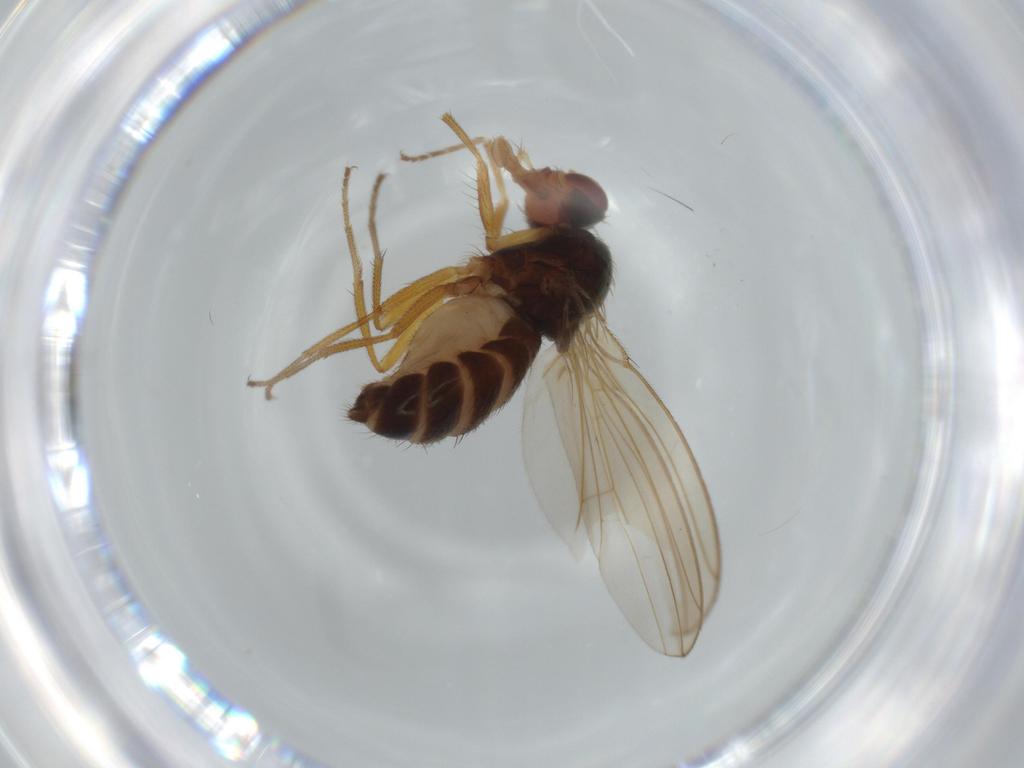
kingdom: Animalia
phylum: Arthropoda
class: Insecta
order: Diptera
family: Drosophilidae
